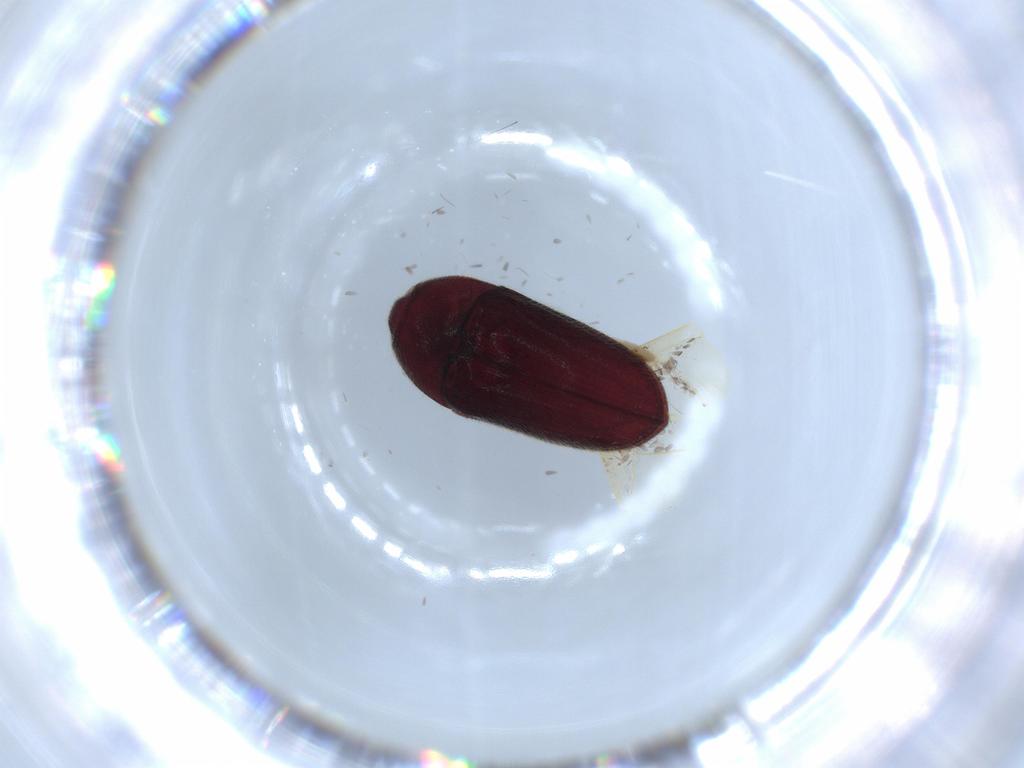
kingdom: Animalia
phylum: Arthropoda
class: Insecta
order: Coleoptera
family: Throscidae
